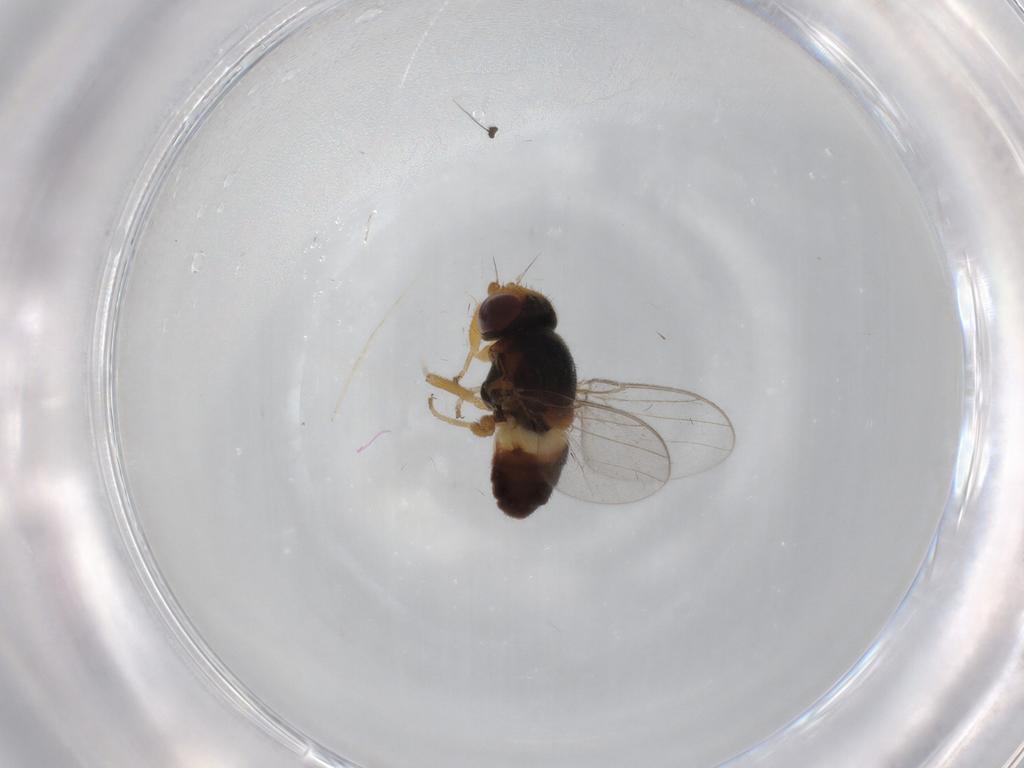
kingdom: Animalia
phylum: Arthropoda
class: Insecta
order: Diptera
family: Chloropidae
